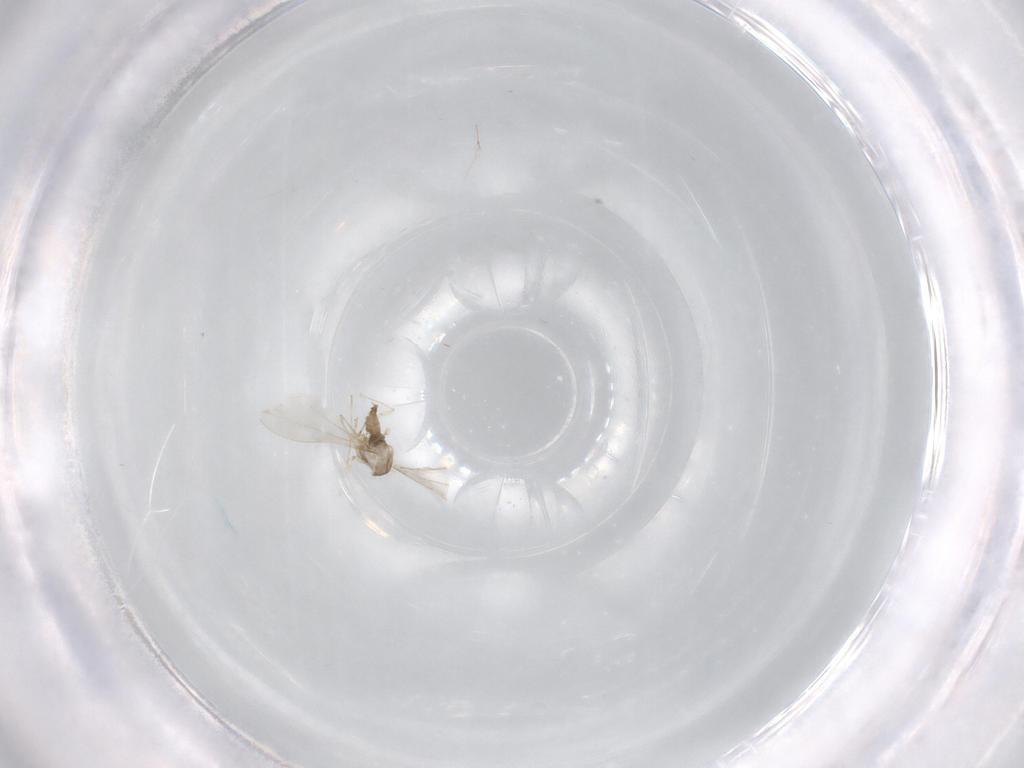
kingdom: Animalia
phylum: Arthropoda
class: Insecta
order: Diptera
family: Cecidomyiidae
